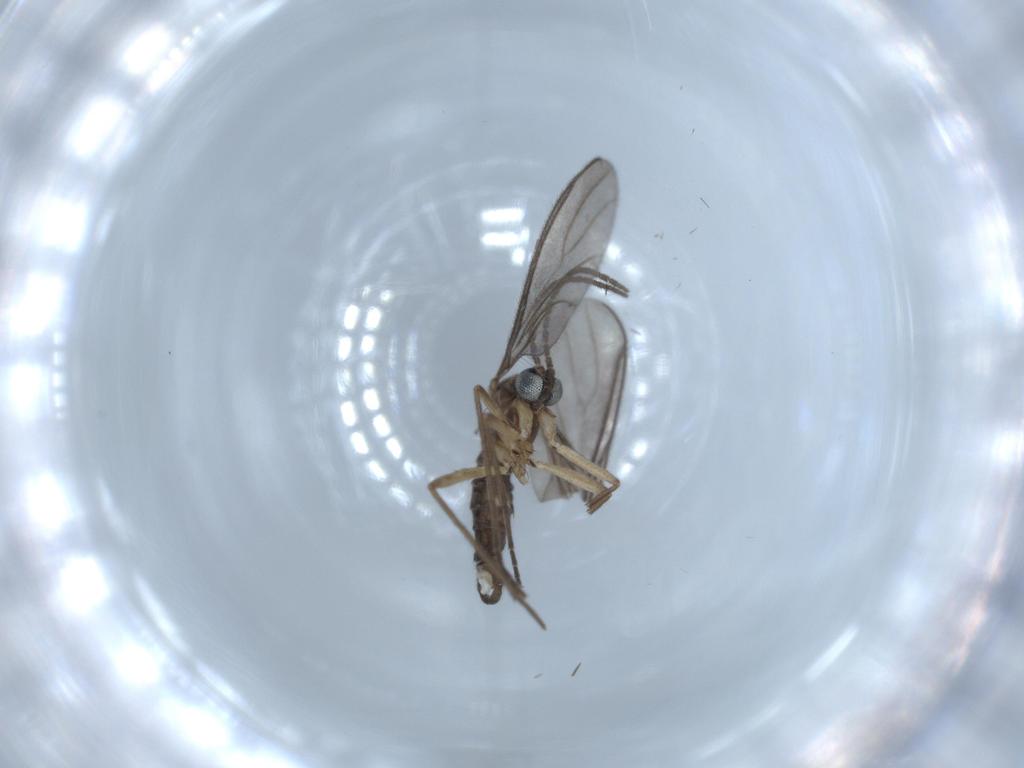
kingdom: Animalia
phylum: Arthropoda
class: Insecta
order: Diptera
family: Sciaridae
